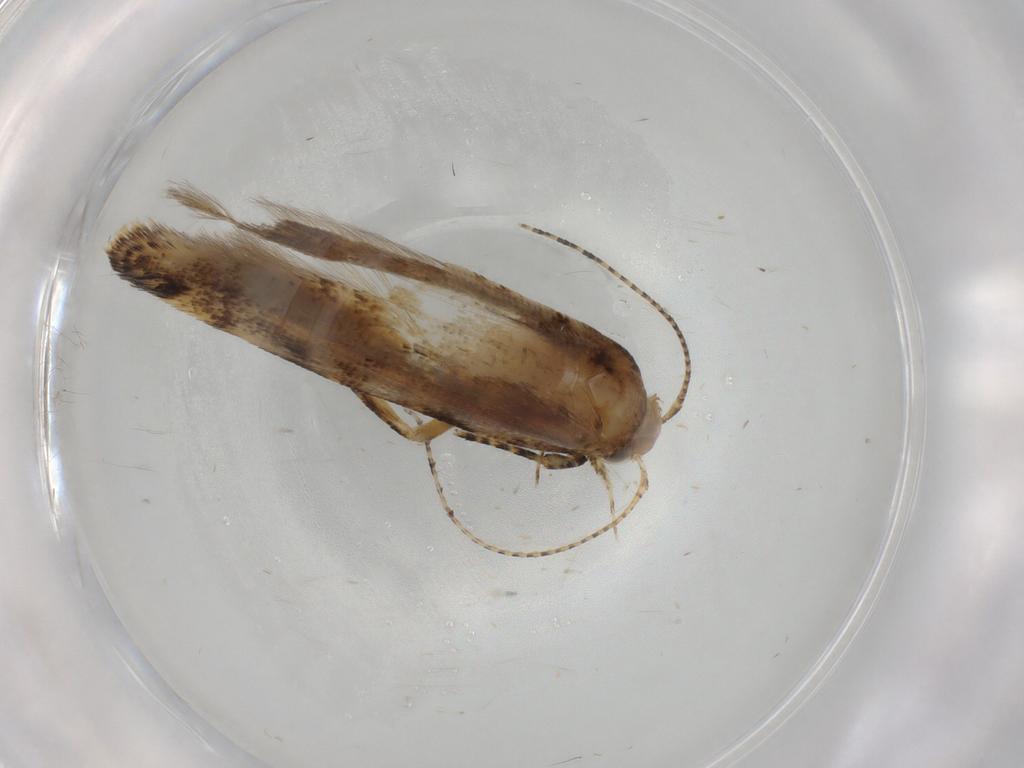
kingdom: Animalia
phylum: Arthropoda
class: Insecta
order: Lepidoptera
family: Gelechiidae
